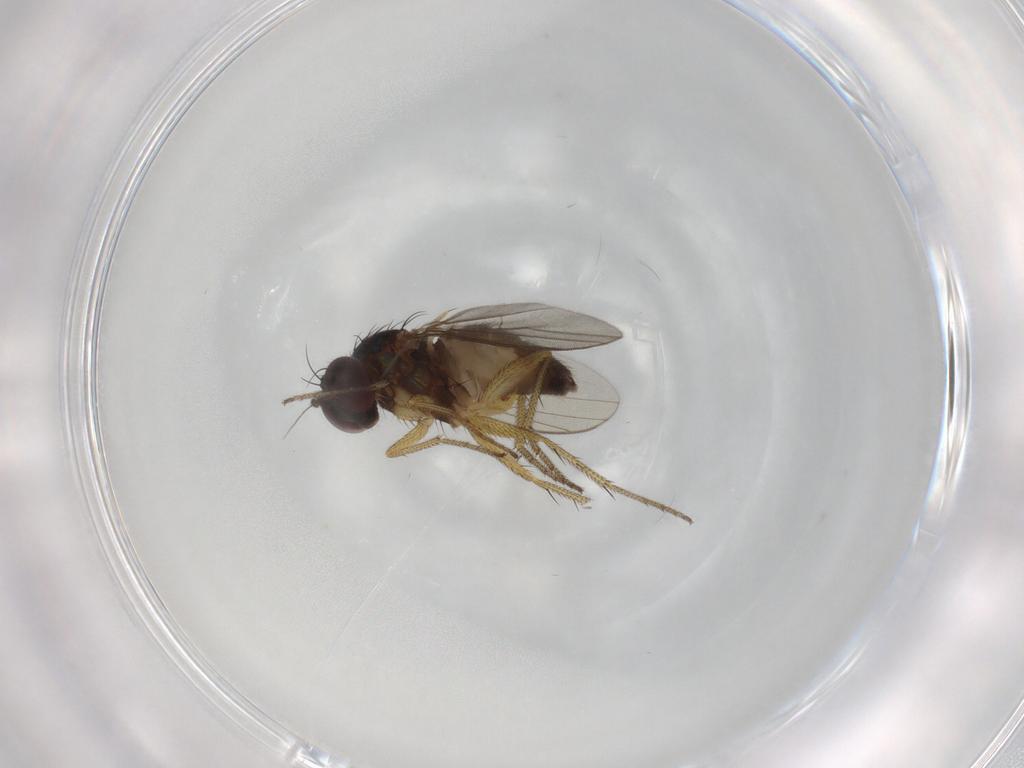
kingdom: Animalia
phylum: Arthropoda
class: Insecta
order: Diptera
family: Dolichopodidae
